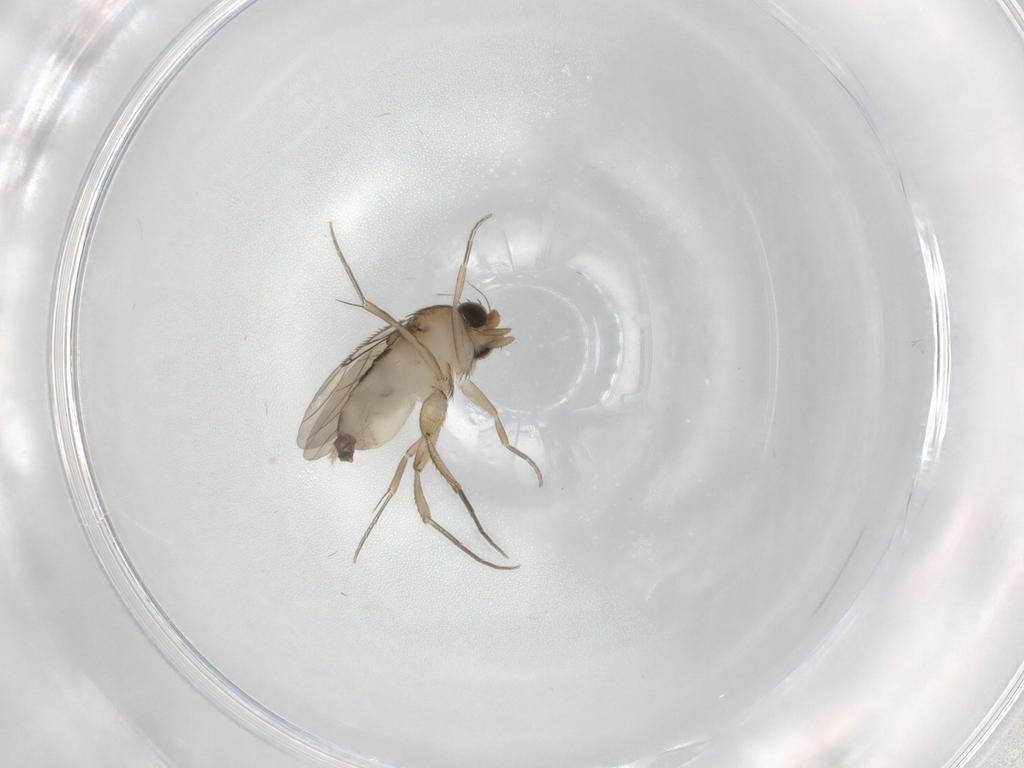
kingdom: Animalia
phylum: Arthropoda
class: Insecta
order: Diptera
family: Phoridae
